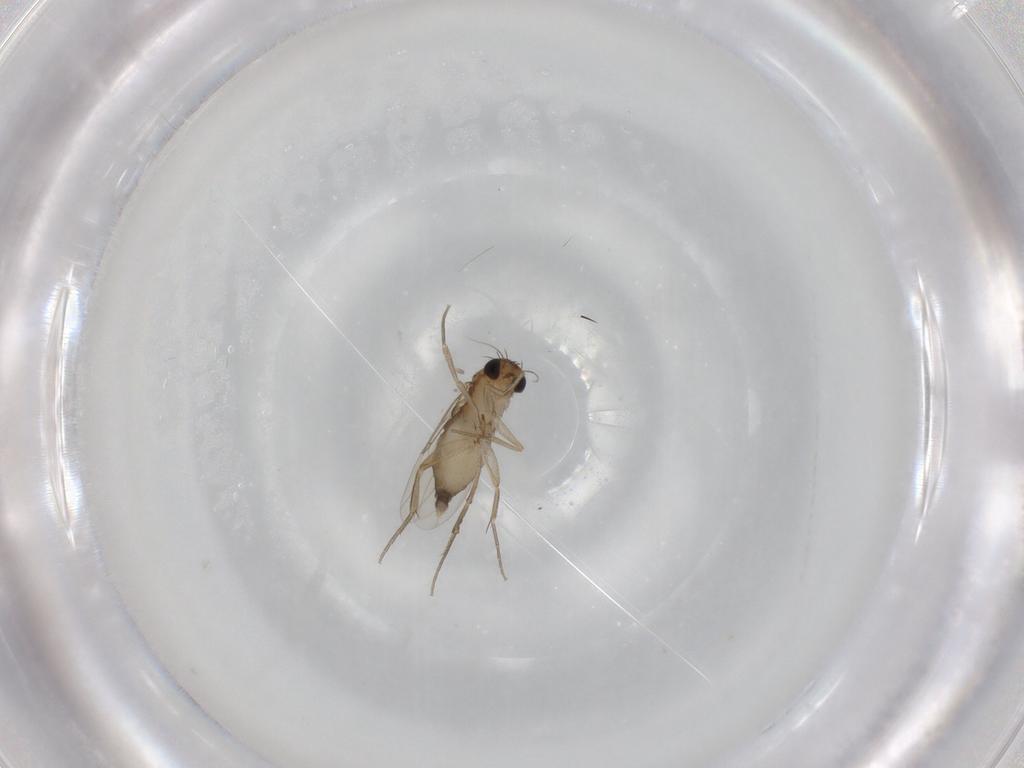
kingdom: Animalia
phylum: Arthropoda
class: Insecta
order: Diptera
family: Phoridae
